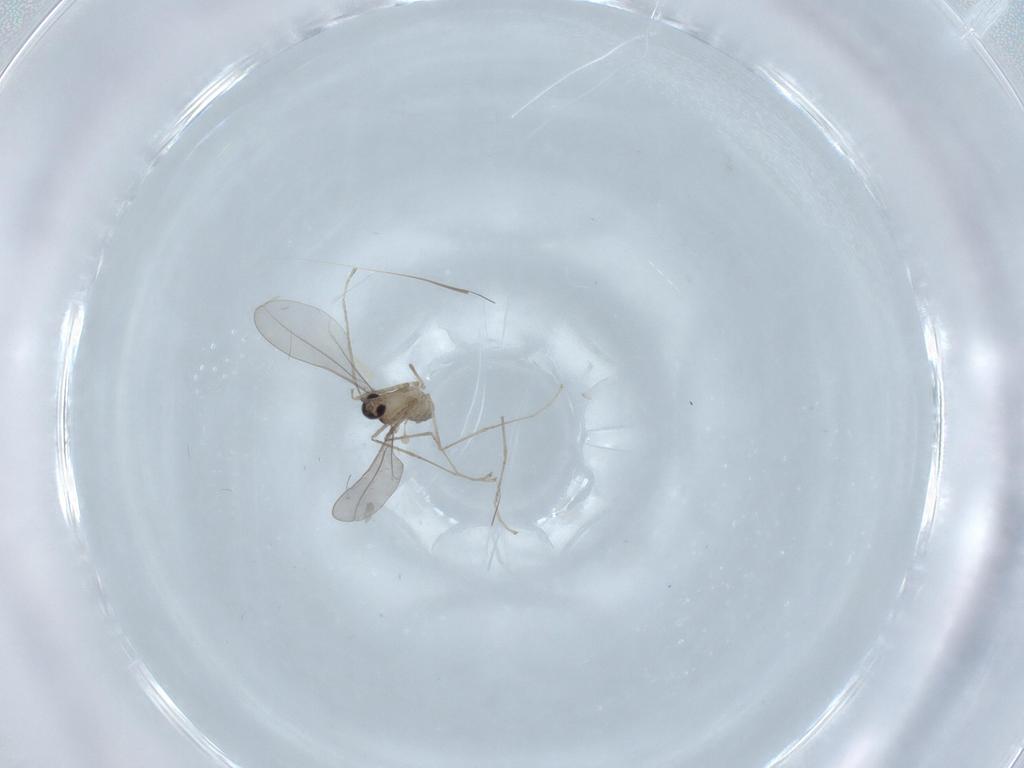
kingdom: Animalia
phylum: Arthropoda
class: Insecta
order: Diptera
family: Cecidomyiidae
